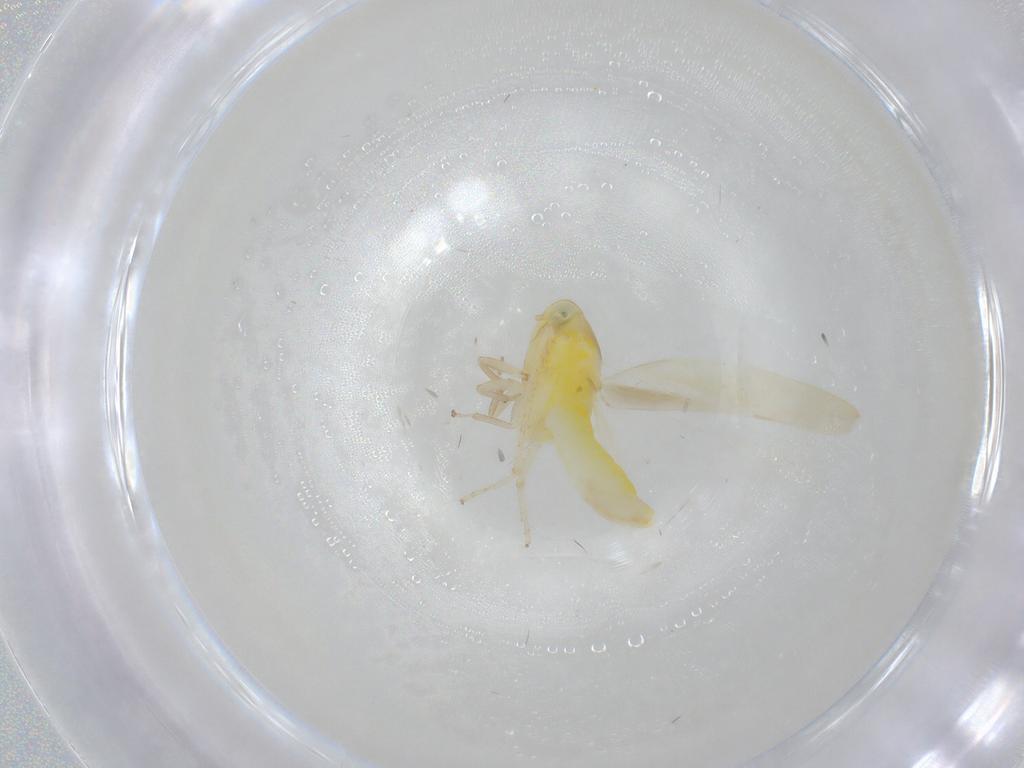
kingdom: Animalia
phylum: Arthropoda
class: Insecta
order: Hemiptera
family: Cicadellidae
